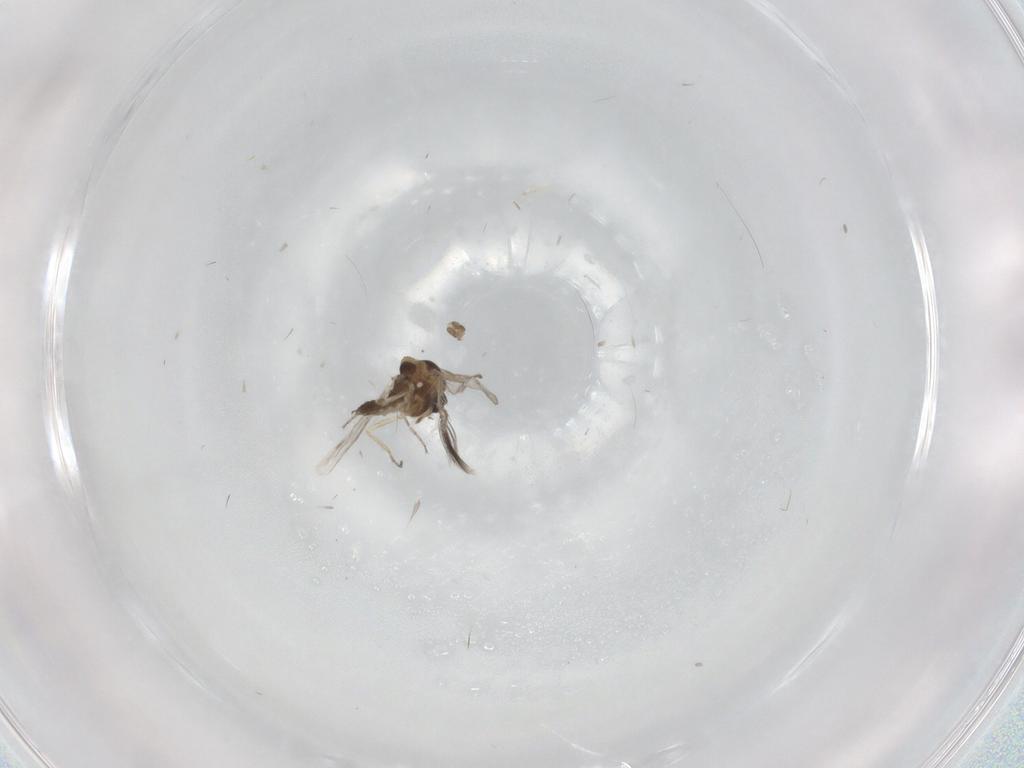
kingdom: Animalia
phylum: Arthropoda
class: Insecta
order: Diptera
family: Ceratopogonidae
